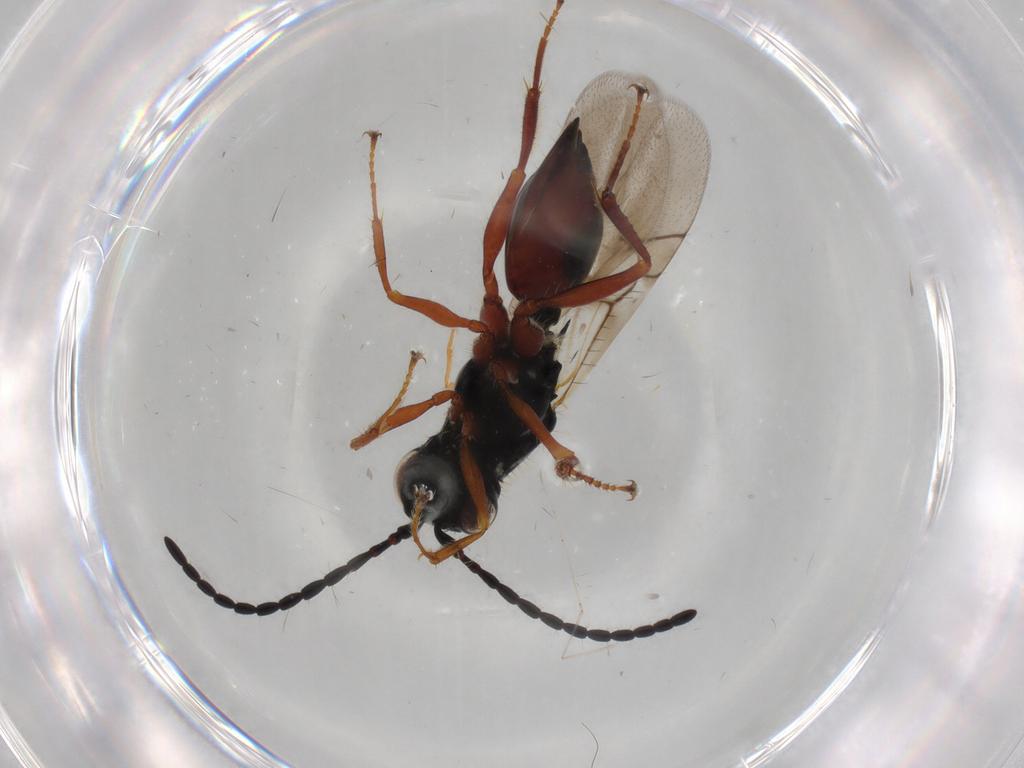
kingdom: Animalia
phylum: Arthropoda
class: Insecta
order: Hymenoptera
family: Figitidae
